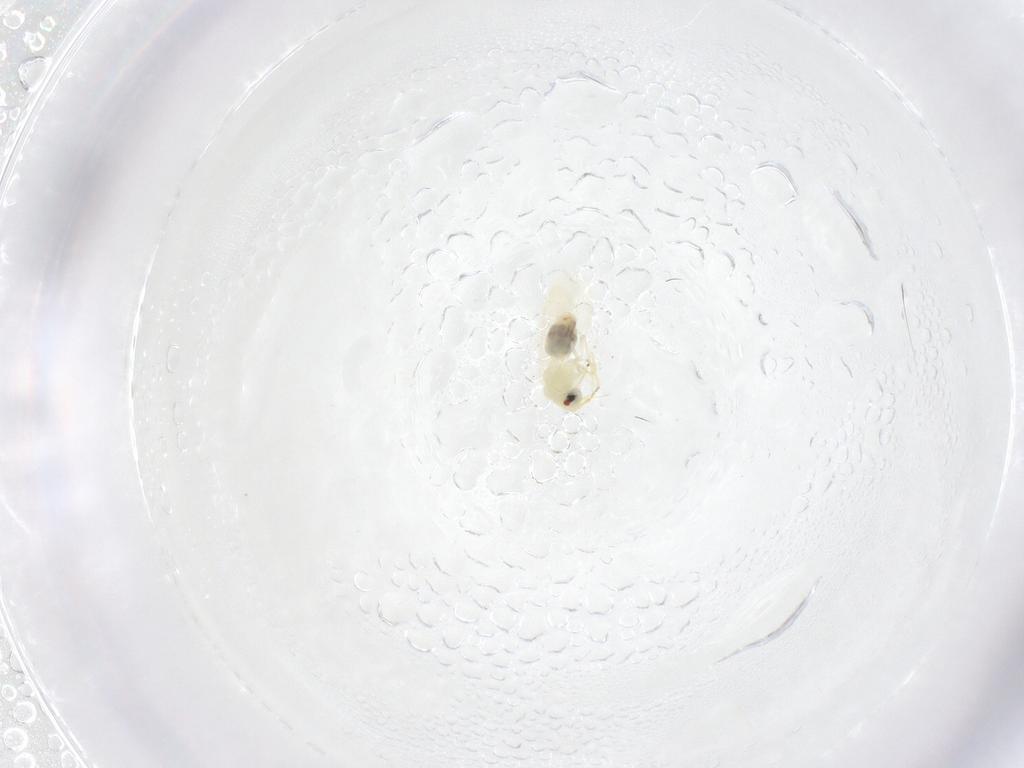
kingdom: Animalia
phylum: Arthropoda
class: Insecta
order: Hemiptera
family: Aleyrodidae
